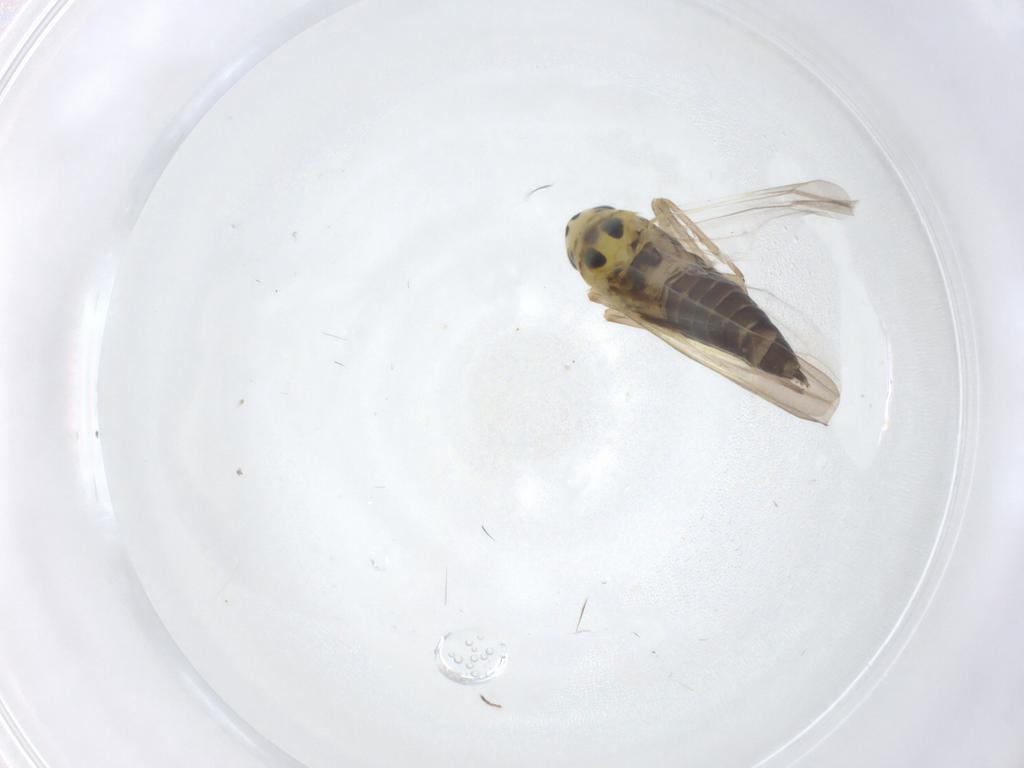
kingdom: Animalia
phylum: Arthropoda
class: Insecta
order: Hemiptera
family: Cicadellidae
